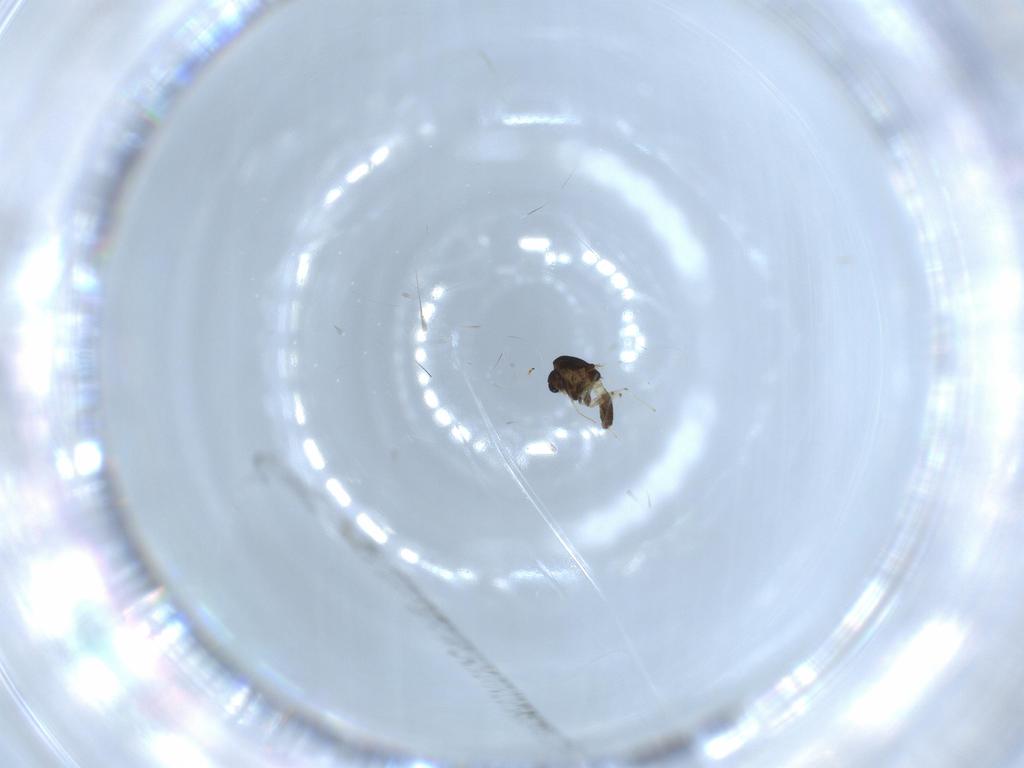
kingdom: Animalia
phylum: Arthropoda
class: Insecta
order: Diptera
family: Chironomidae
